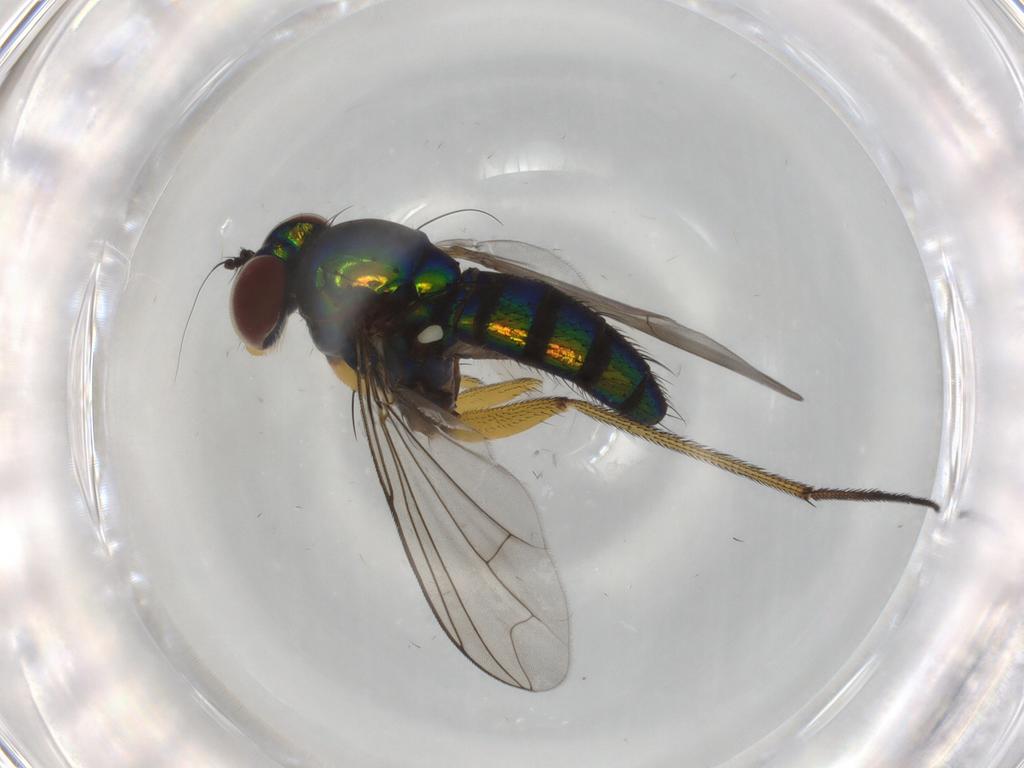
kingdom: Animalia
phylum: Arthropoda
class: Insecta
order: Diptera
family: Dolichopodidae
